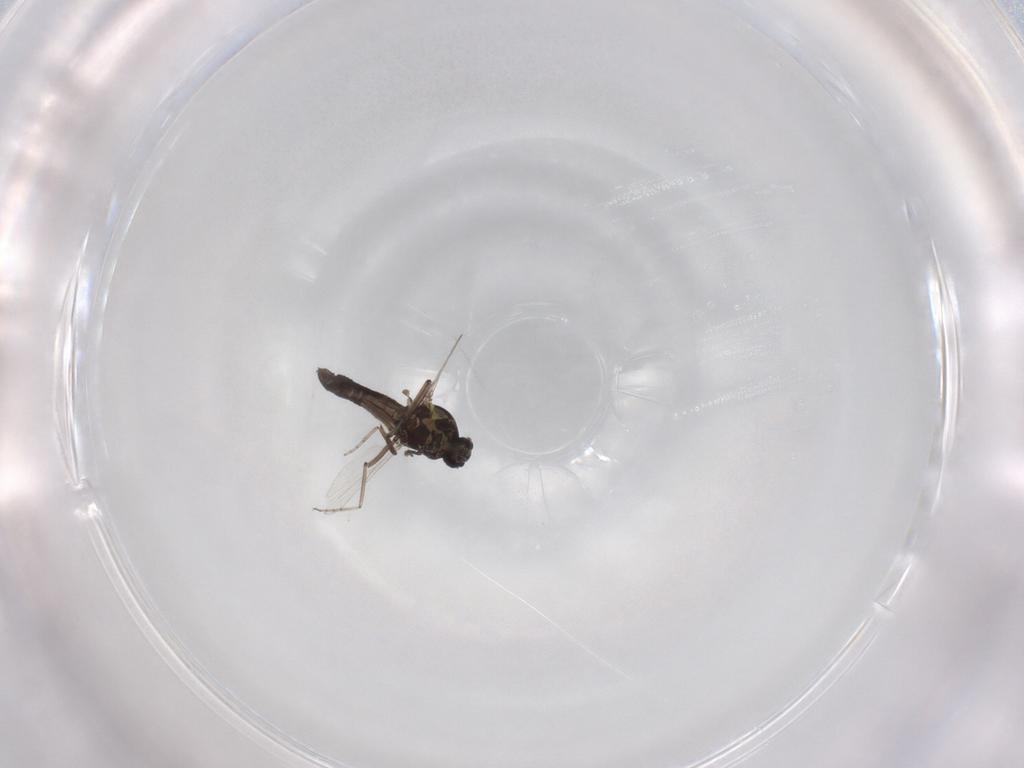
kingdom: Animalia
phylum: Arthropoda
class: Insecta
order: Diptera
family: Ceratopogonidae
